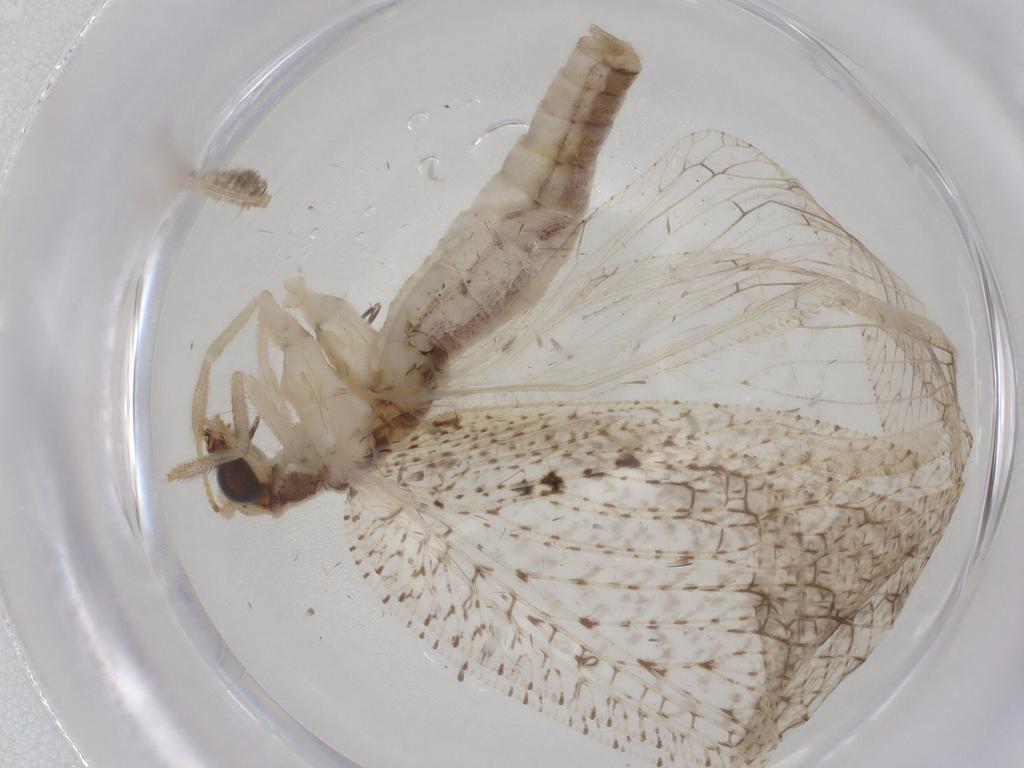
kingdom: Animalia
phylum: Arthropoda
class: Insecta
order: Neuroptera
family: Hemerobiidae
